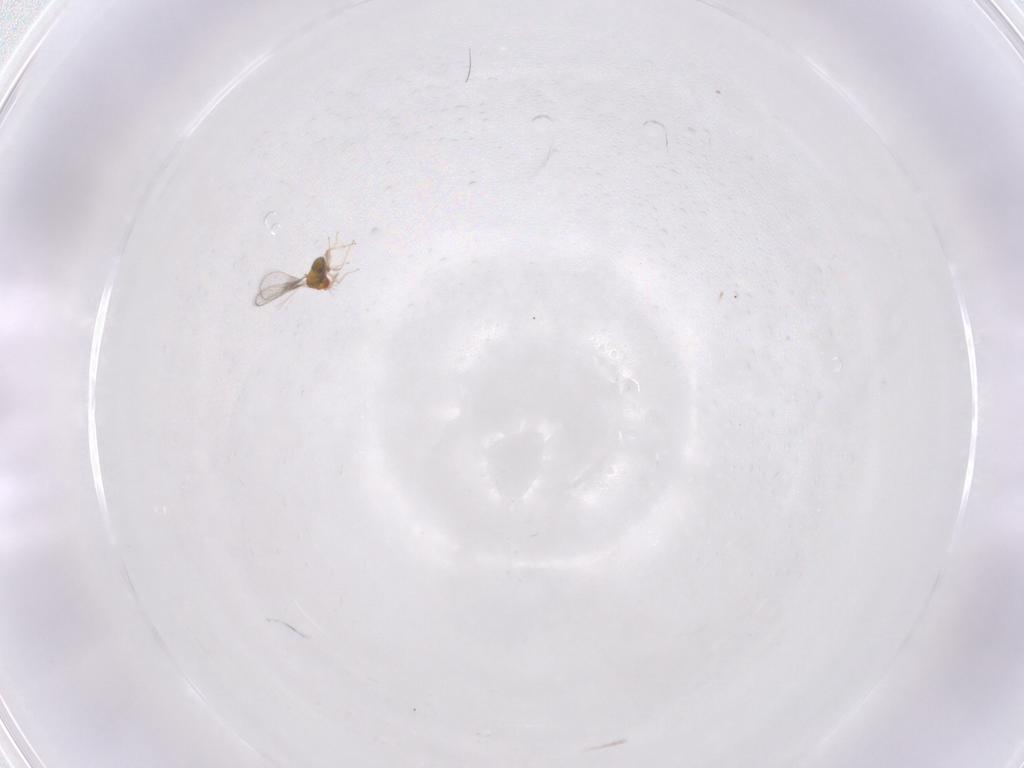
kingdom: Animalia
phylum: Arthropoda
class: Insecta
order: Hymenoptera
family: Trichogrammatidae
